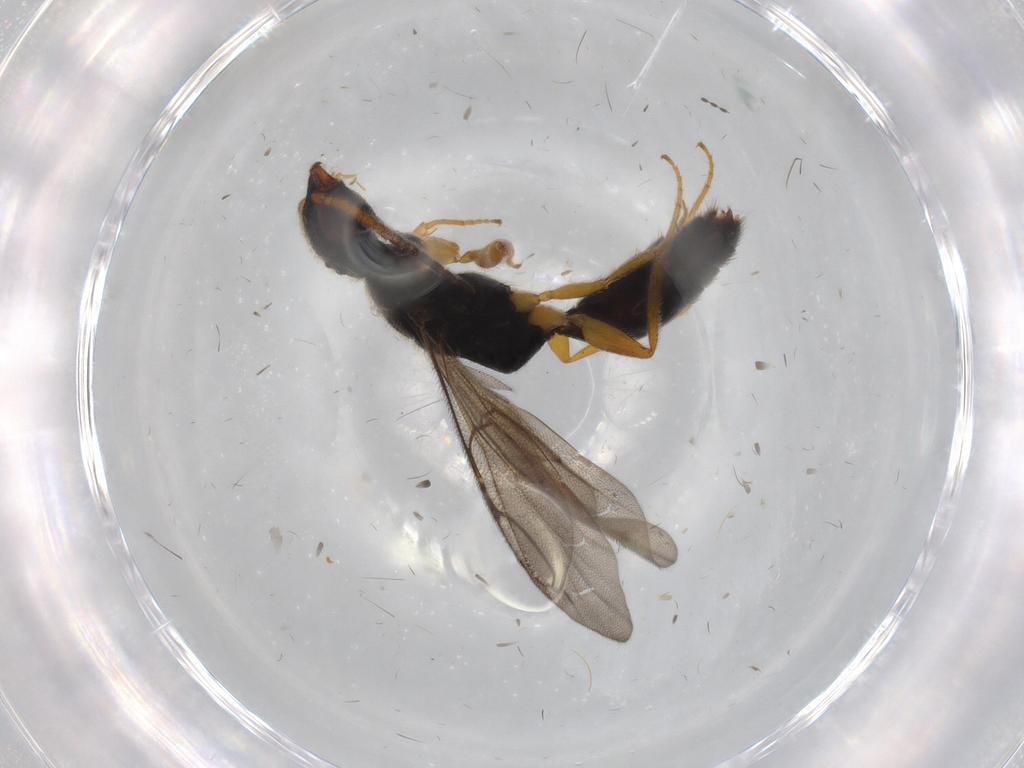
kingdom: Animalia
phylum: Arthropoda
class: Insecta
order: Hymenoptera
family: Bethylidae
